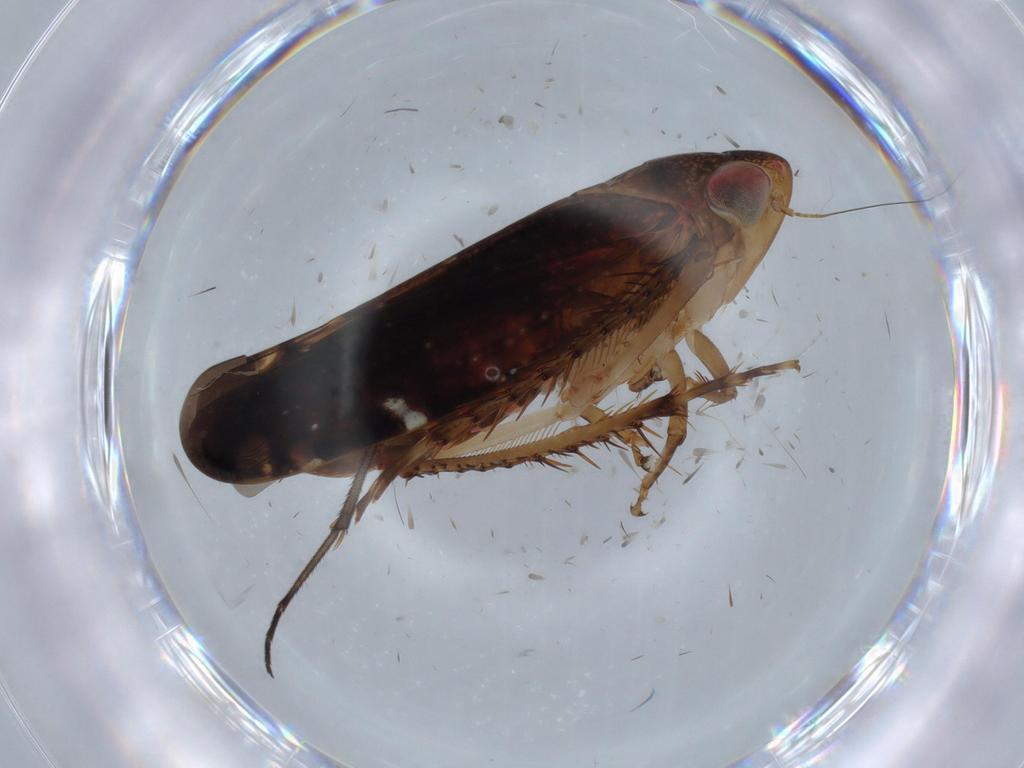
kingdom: Animalia
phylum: Arthropoda
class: Insecta
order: Hemiptera
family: Cicadellidae
